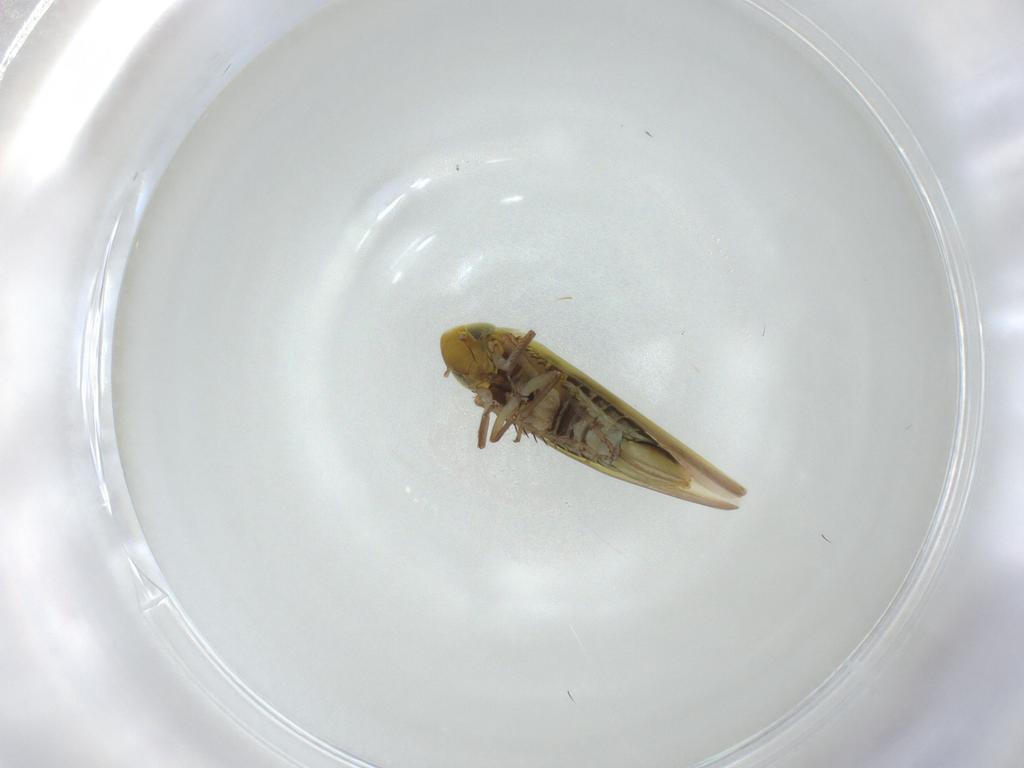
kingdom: Animalia
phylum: Arthropoda
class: Insecta
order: Hemiptera
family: Cicadellidae
